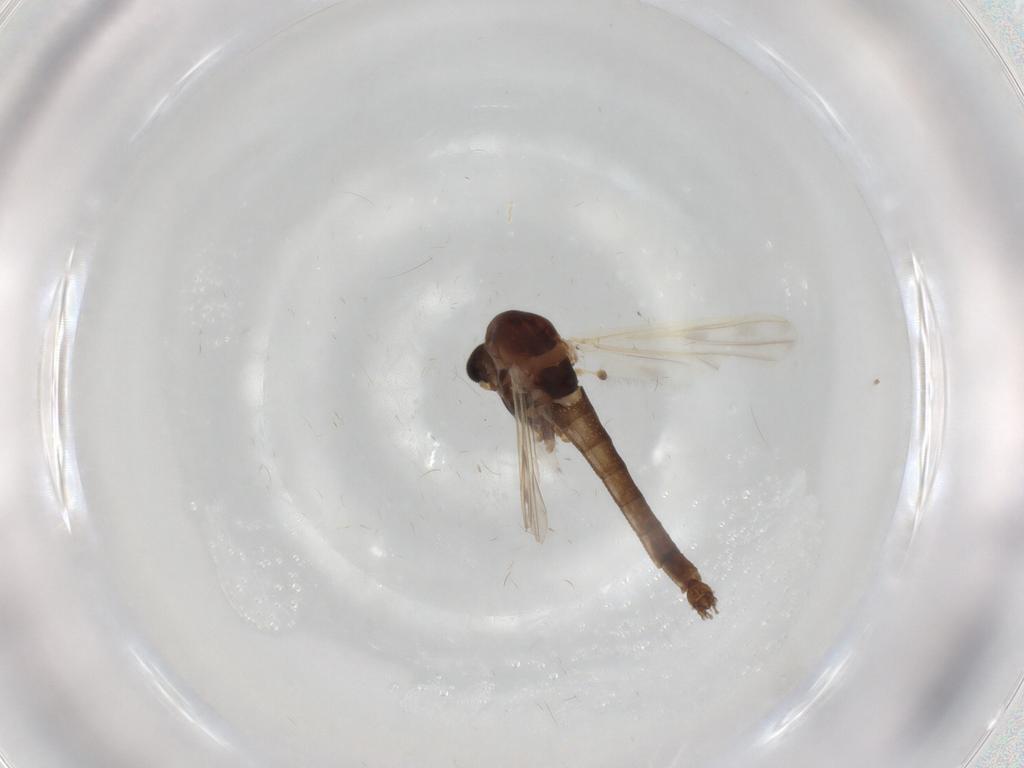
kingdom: Animalia
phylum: Arthropoda
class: Insecta
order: Diptera
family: Chironomidae
